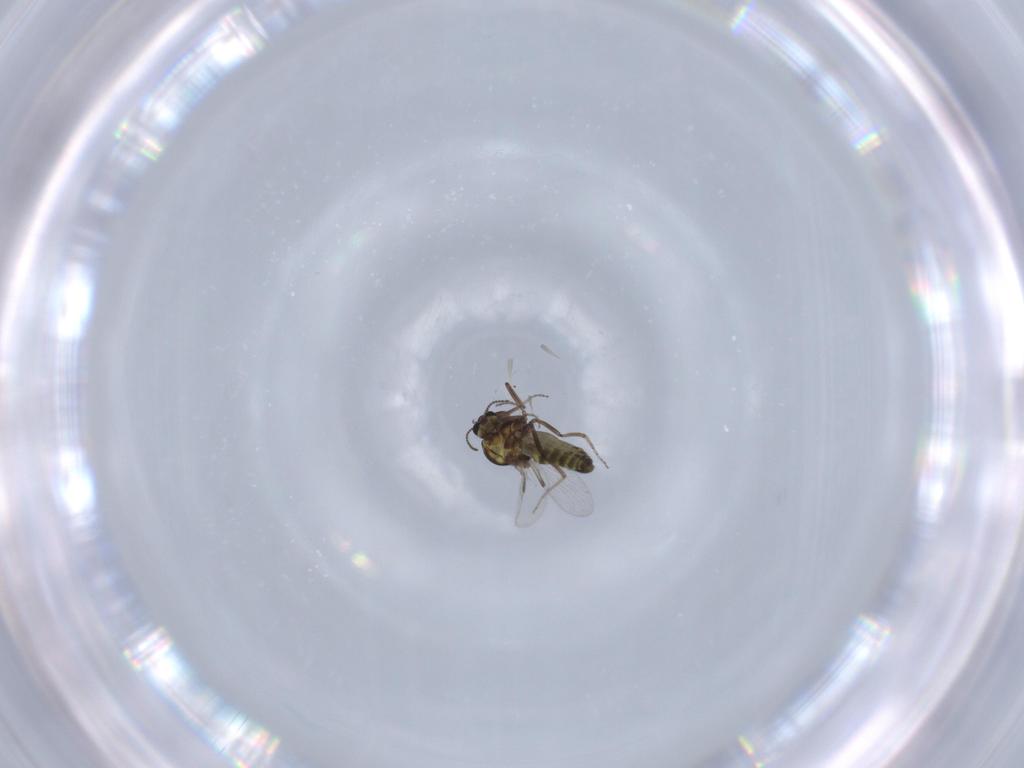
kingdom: Animalia
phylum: Arthropoda
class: Insecta
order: Diptera
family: Ceratopogonidae
